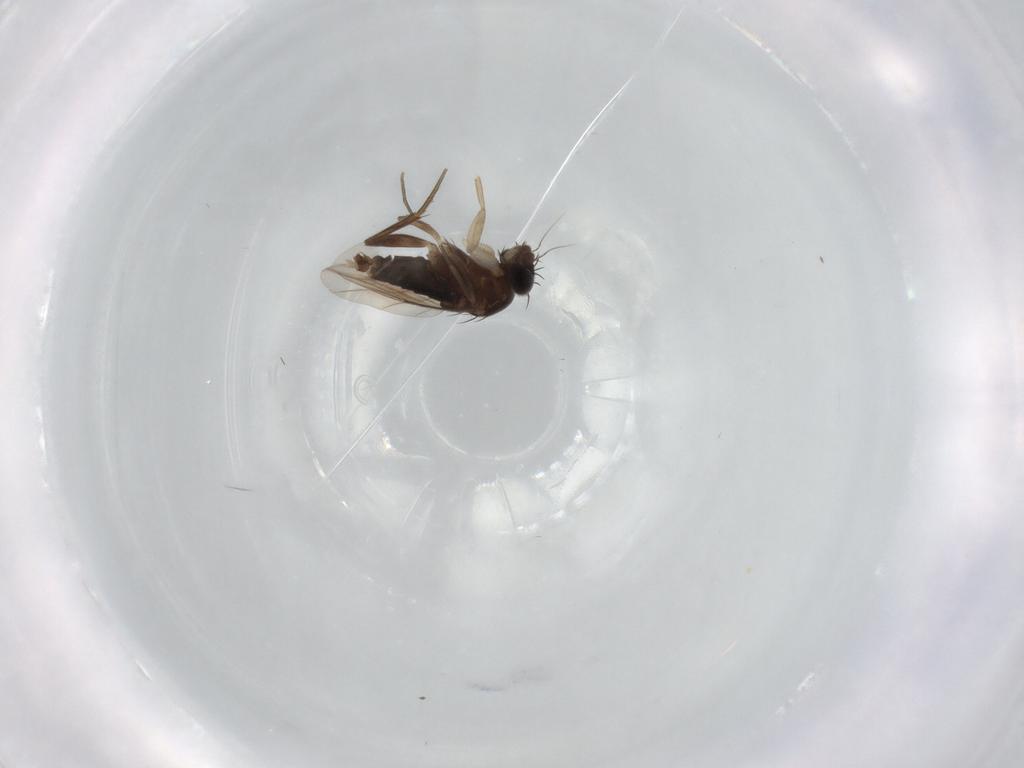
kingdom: Animalia
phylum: Arthropoda
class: Insecta
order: Diptera
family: Phoridae
